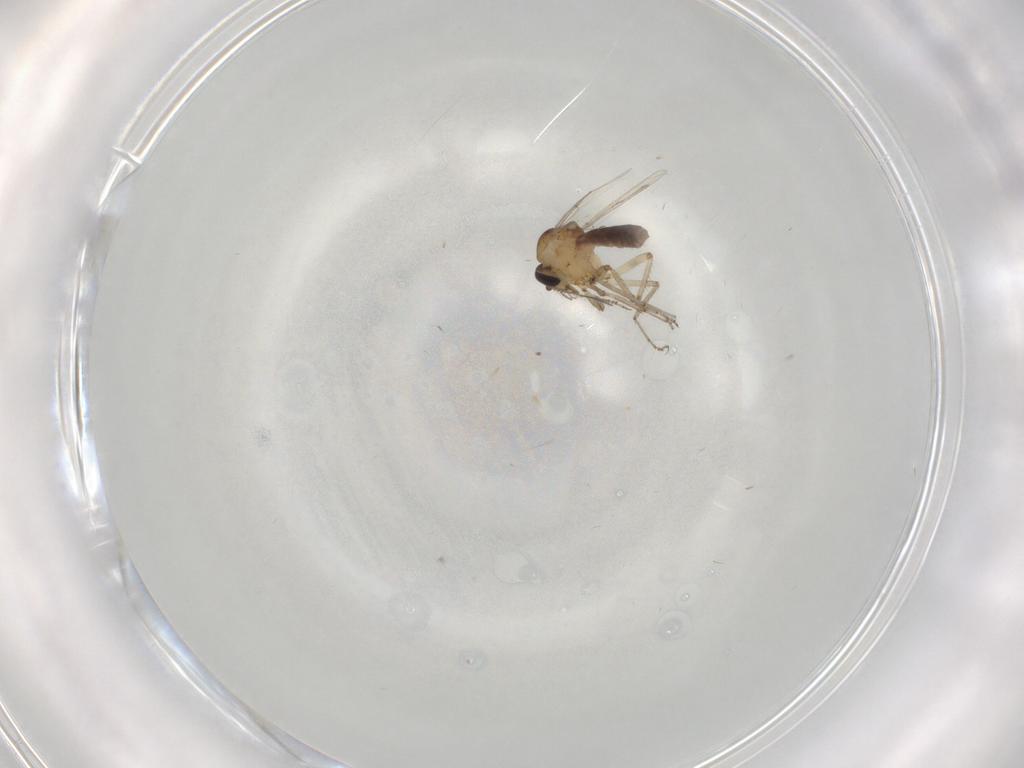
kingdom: Animalia
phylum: Arthropoda
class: Insecta
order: Diptera
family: Ceratopogonidae
